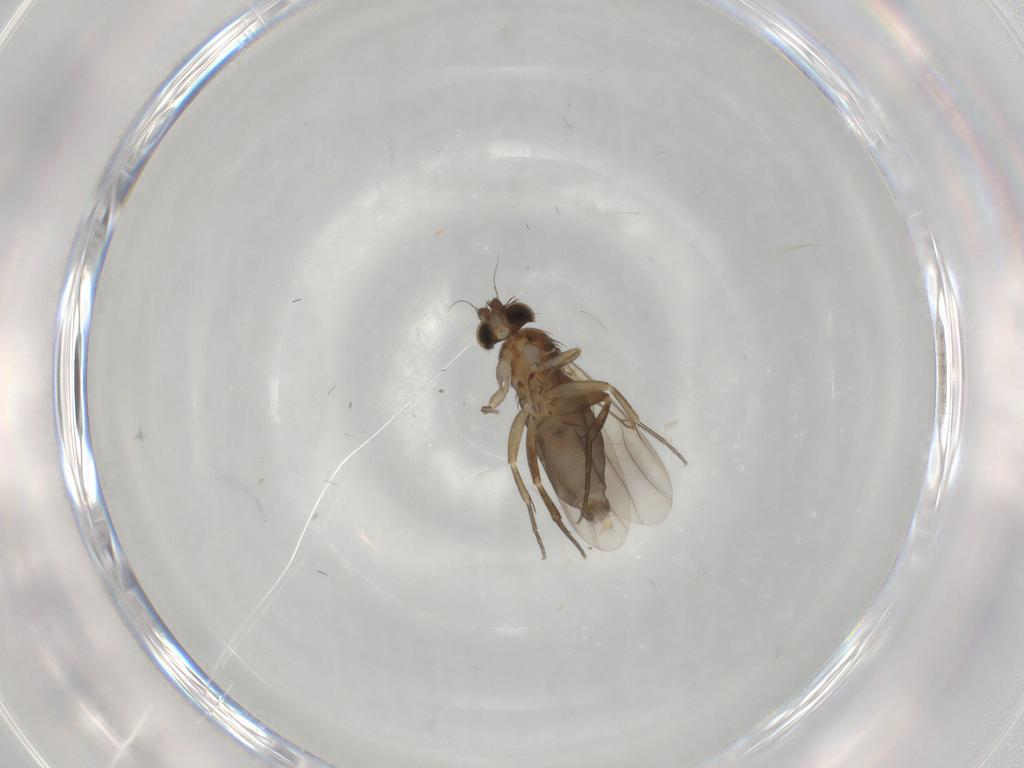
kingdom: Animalia
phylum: Arthropoda
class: Insecta
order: Diptera
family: Phoridae
